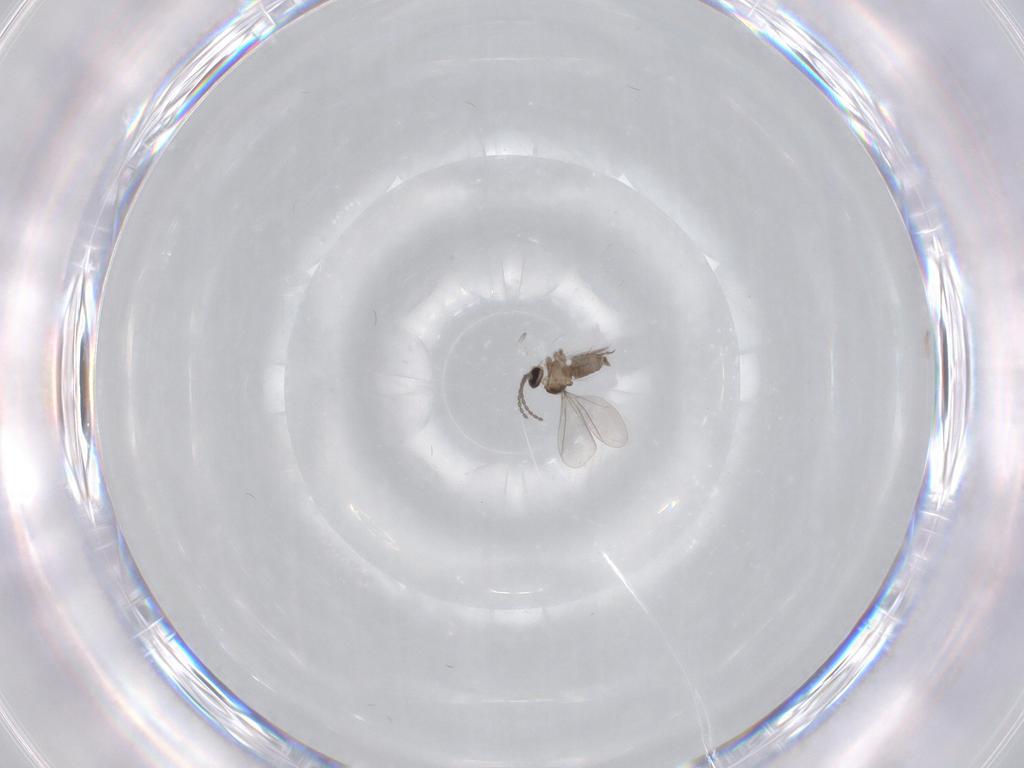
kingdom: Animalia
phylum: Arthropoda
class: Insecta
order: Diptera
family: Ceratopogonidae
